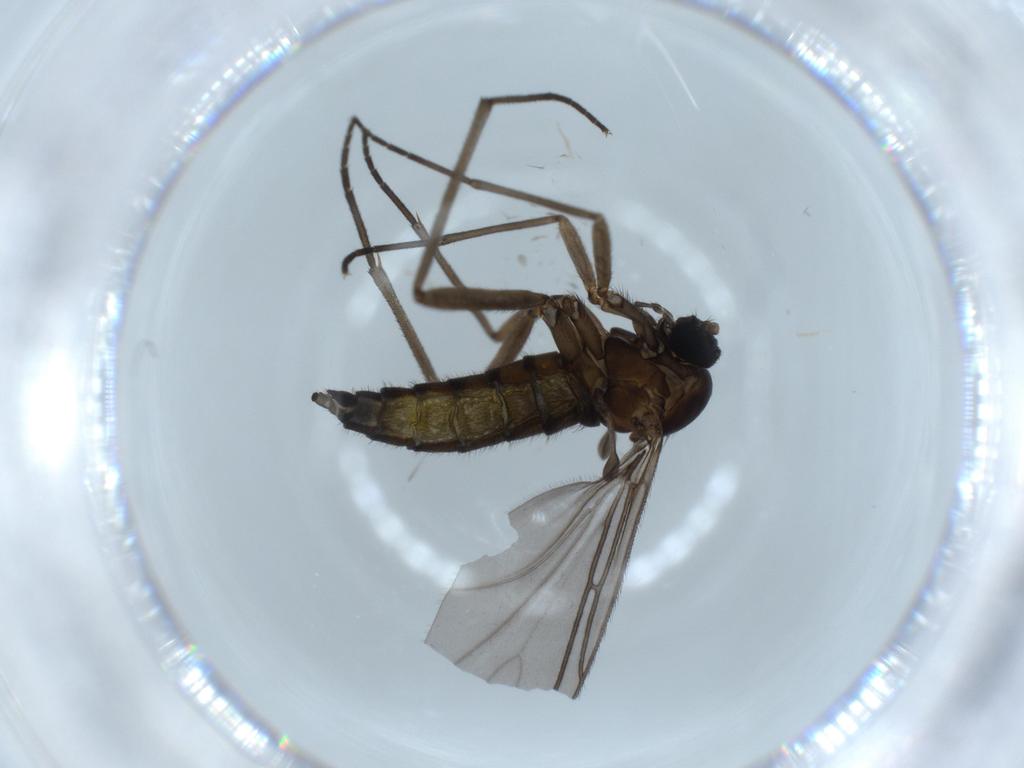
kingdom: Animalia
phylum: Arthropoda
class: Insecta
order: Diptera
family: Sciaridae
